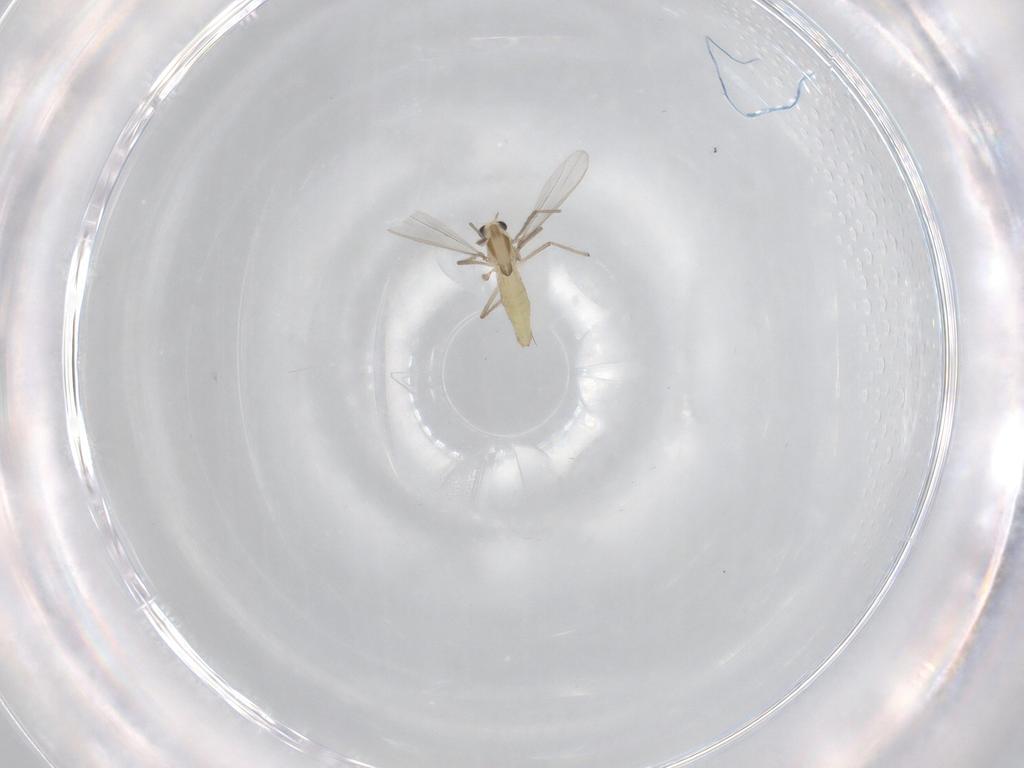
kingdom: Animalia
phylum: Arthropoda
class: Insecta
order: Diptera
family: Chironomidae
